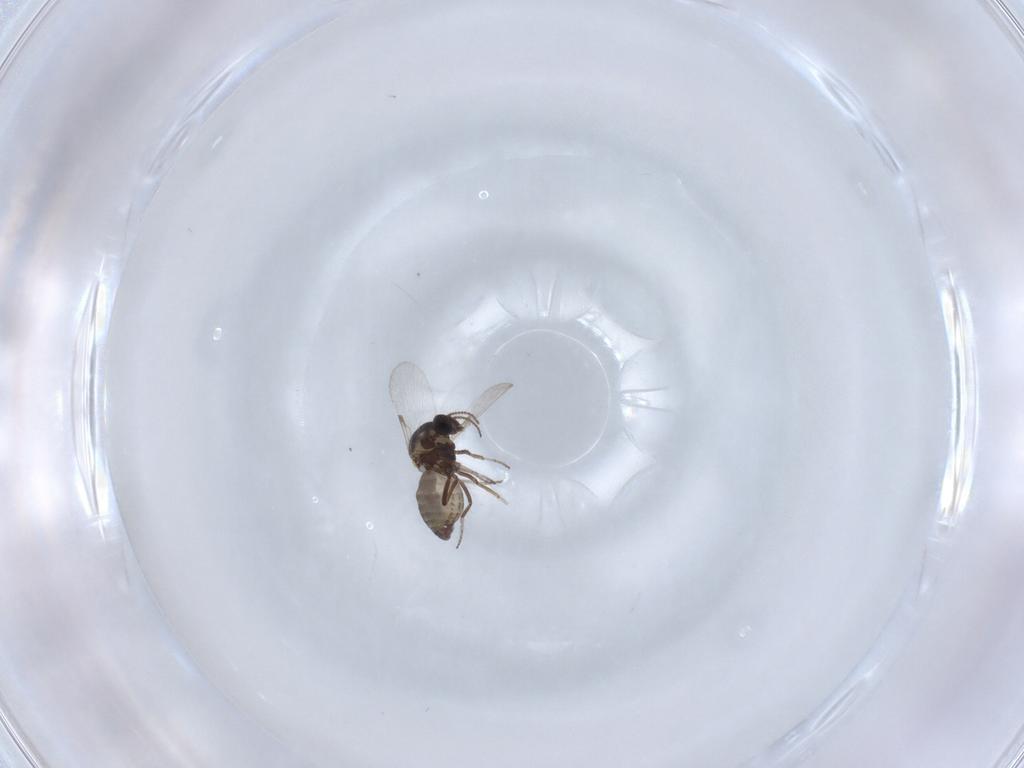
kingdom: Animalia
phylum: Arthropoda
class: Insecta
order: Diptera
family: Ceratopogonidae
